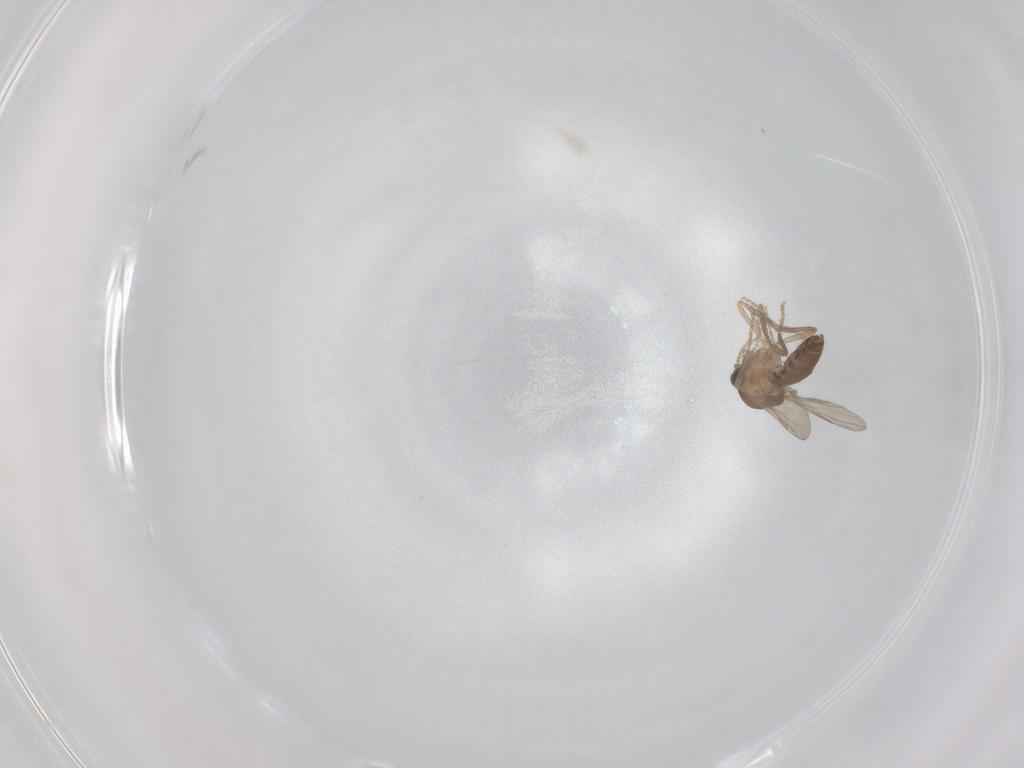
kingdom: Animalia
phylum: Arthropoda
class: Insecta
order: Diptera
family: Ceratopogonidae
